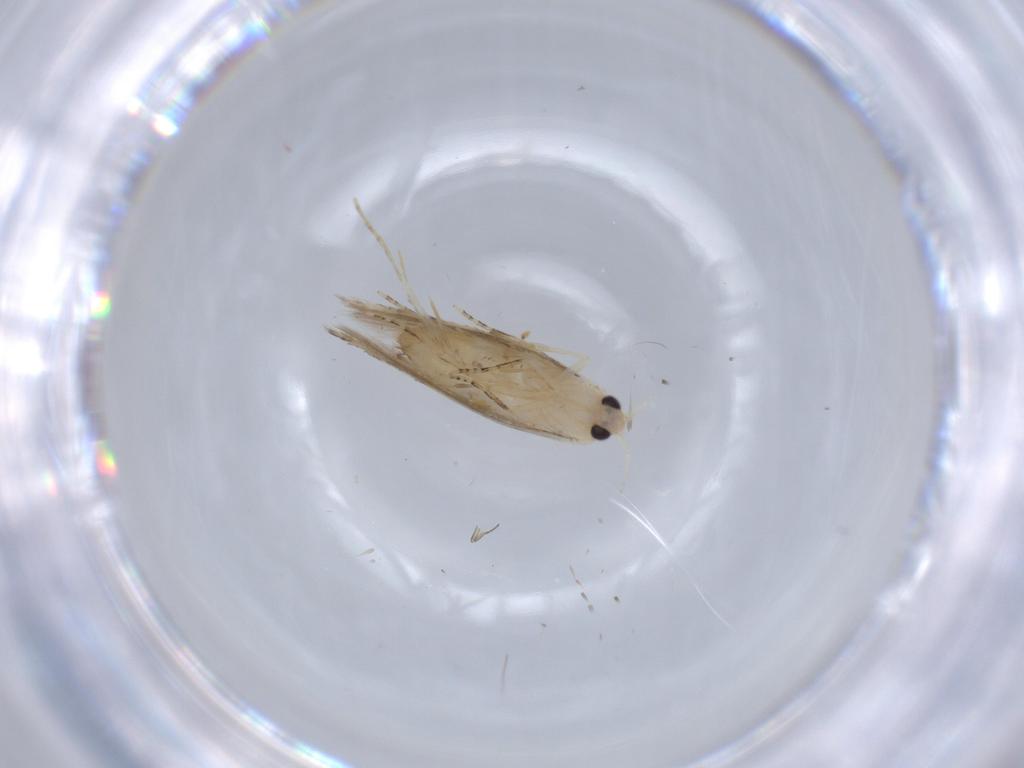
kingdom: Animalia
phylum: Arthropoda
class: Insecta
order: Lepidoptera
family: Bucculatricidae
